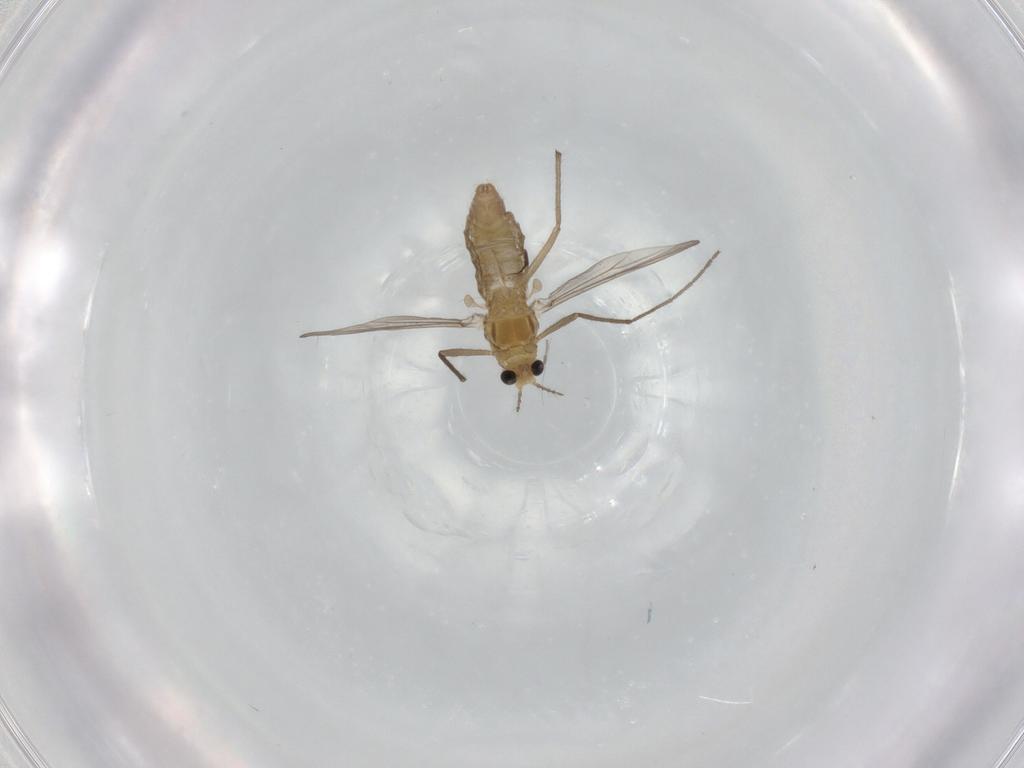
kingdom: Animalia
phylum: Arthropoda
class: Insecta
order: Diptera
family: Chironomidae
